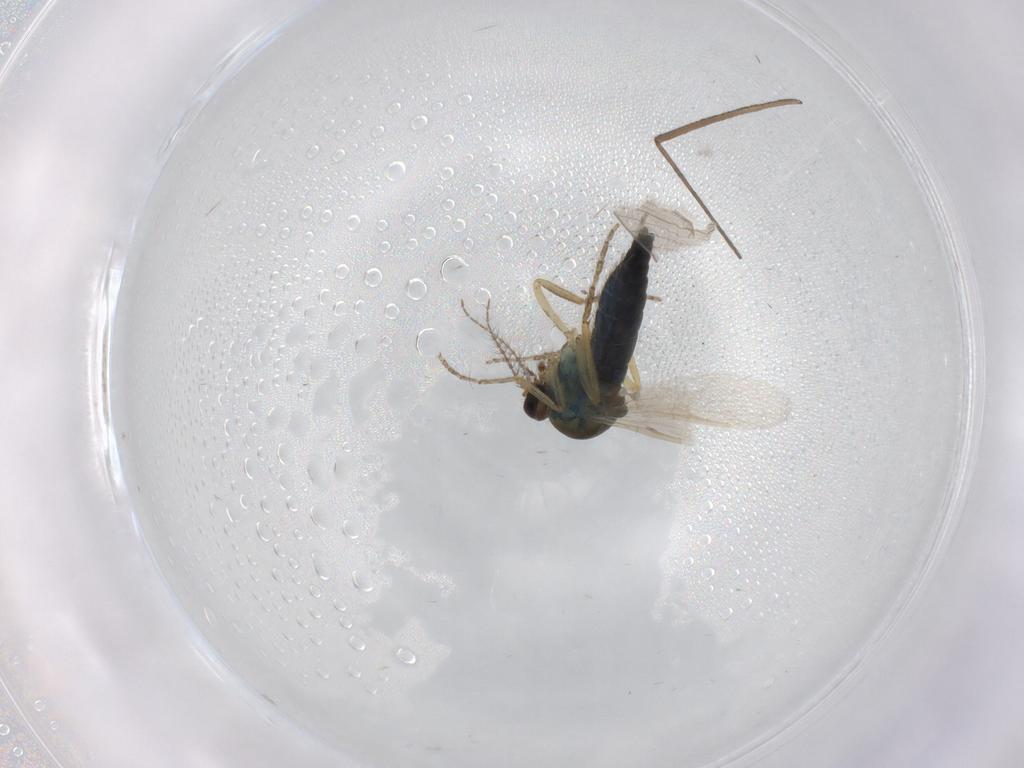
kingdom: Animalia
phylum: Arthropoda
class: Insecta
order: Diptera
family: Ceratopogonidae
